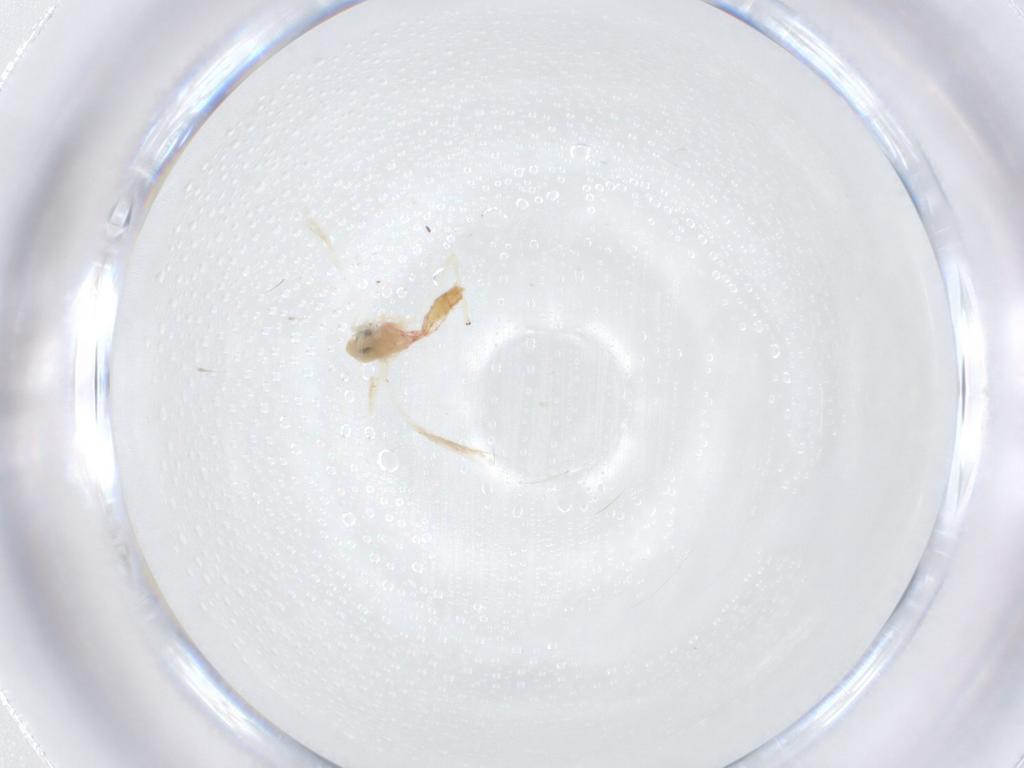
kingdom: Animalia
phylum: Arthropoda
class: Insecta
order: Diptera
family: Chironomidae
